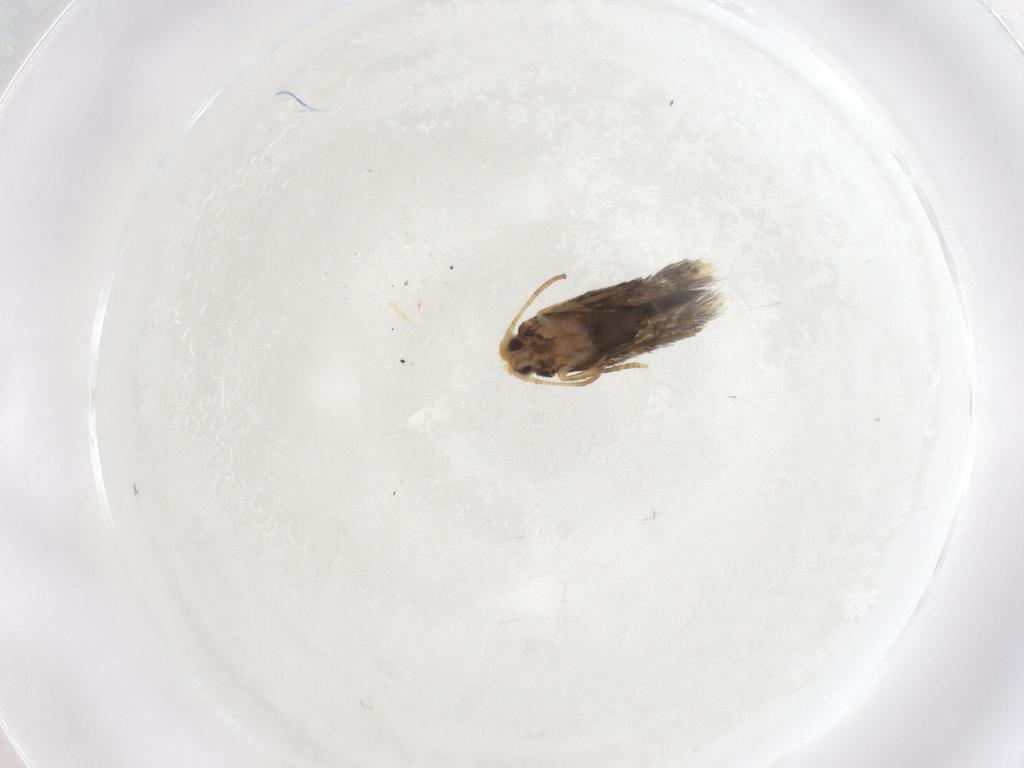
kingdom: Animalia
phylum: Arthropoda
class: Insecta
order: Lepidoptera
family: Nepticulidae
